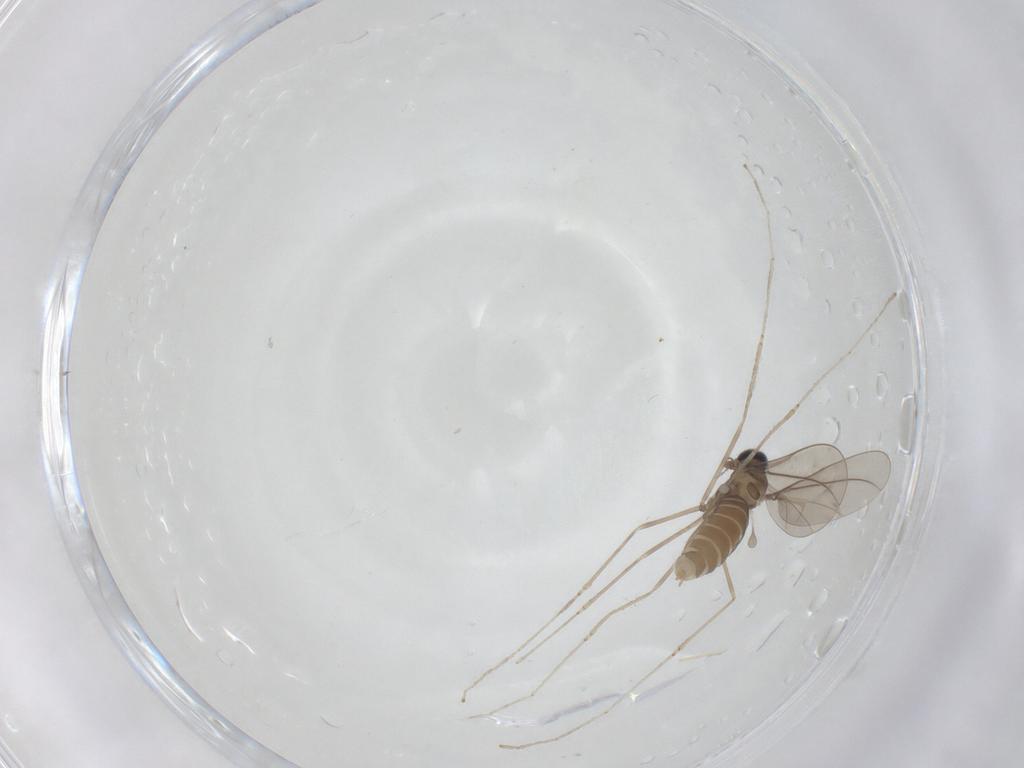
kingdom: Animalia
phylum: Arthropoda
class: Insecta
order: Diptera
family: Cecidomyiidae
